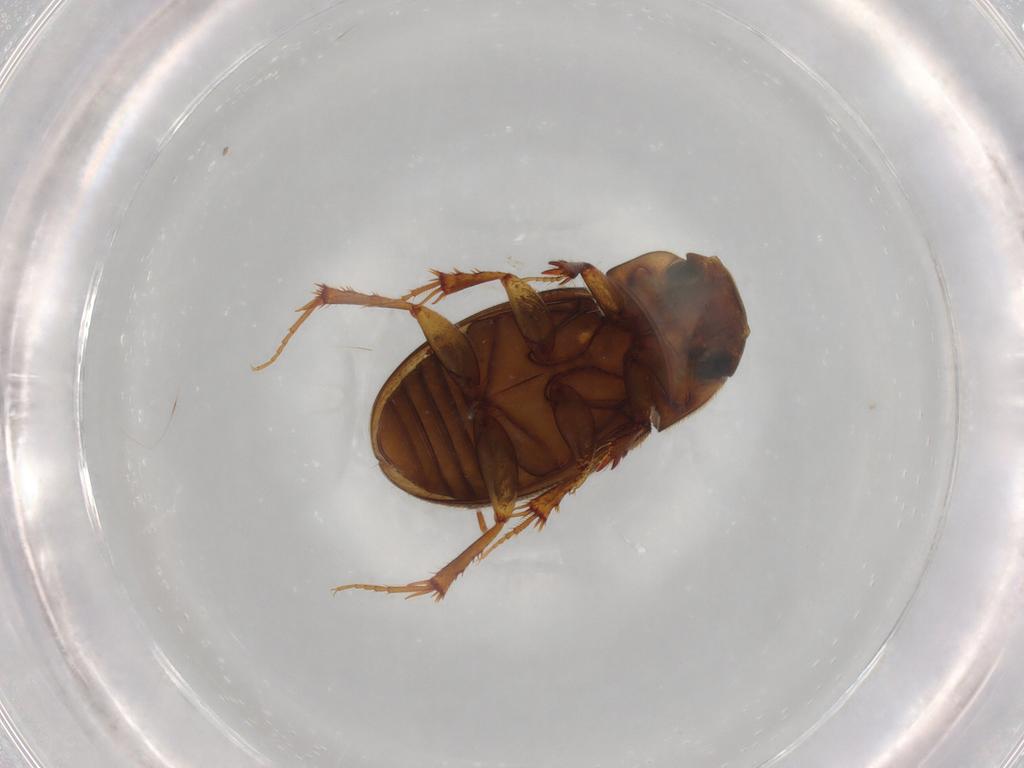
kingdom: Animalia
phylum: Arthropoda
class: Insecta
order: Coleoptera
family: Scarabaeidae
